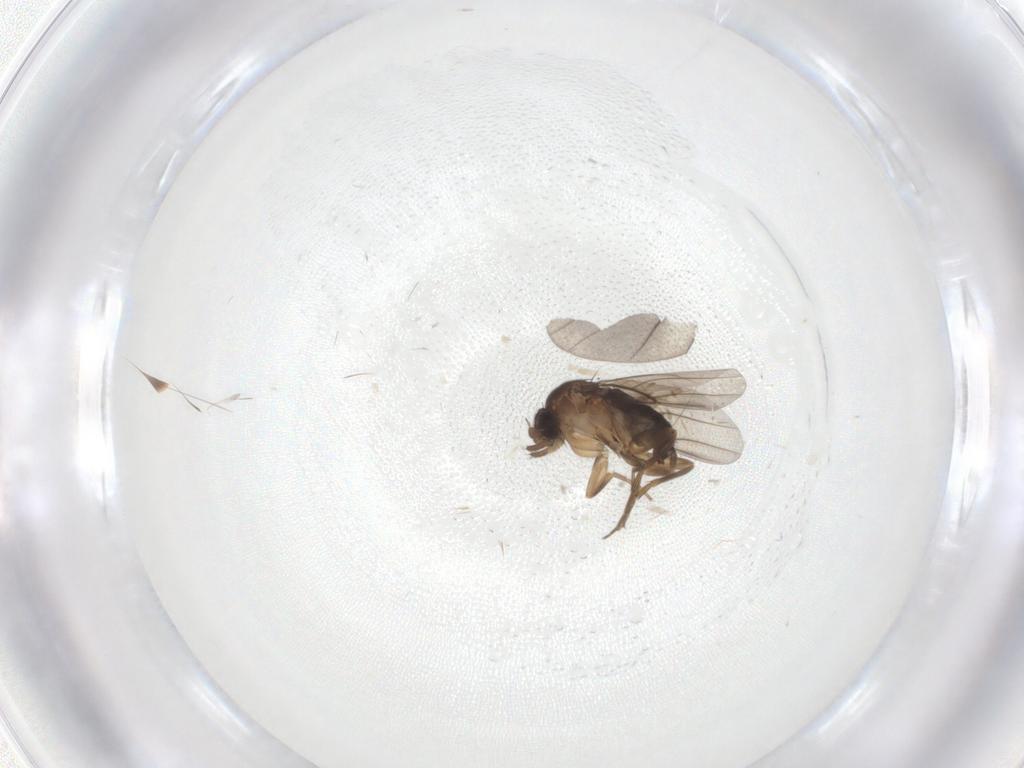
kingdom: Animalia
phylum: Arthropoda
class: Insecta
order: Diptera
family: Phoridae
